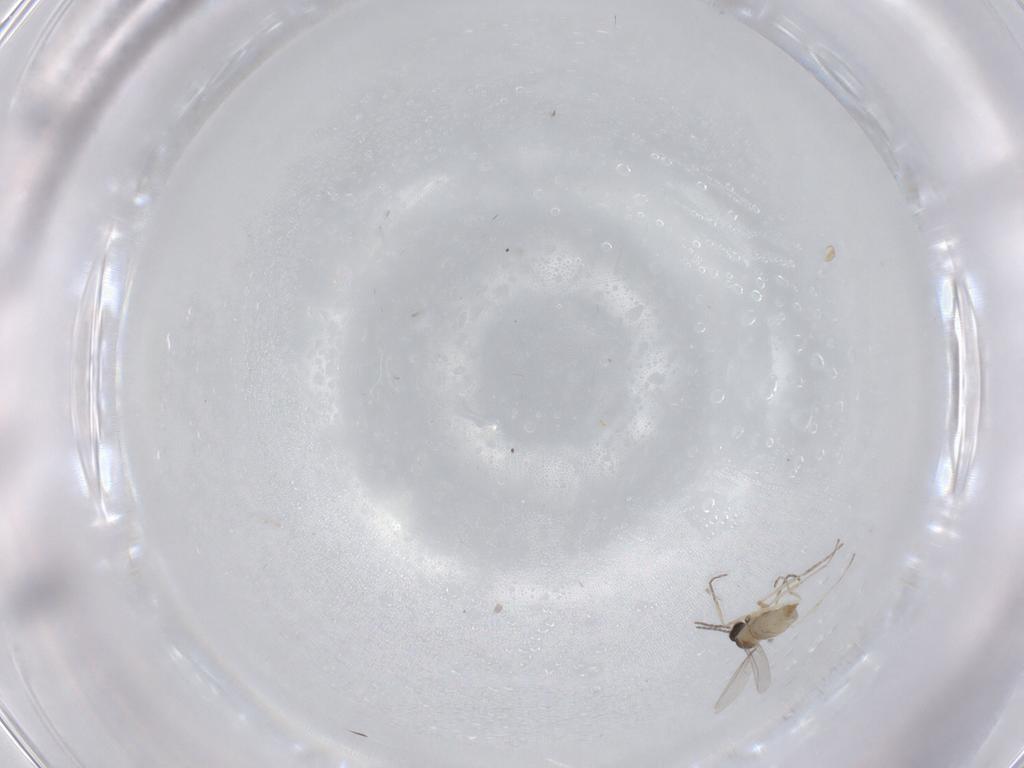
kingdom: Animalia
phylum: Arthropoda
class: Insecta
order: Diptera
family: Cecidomyiidae
